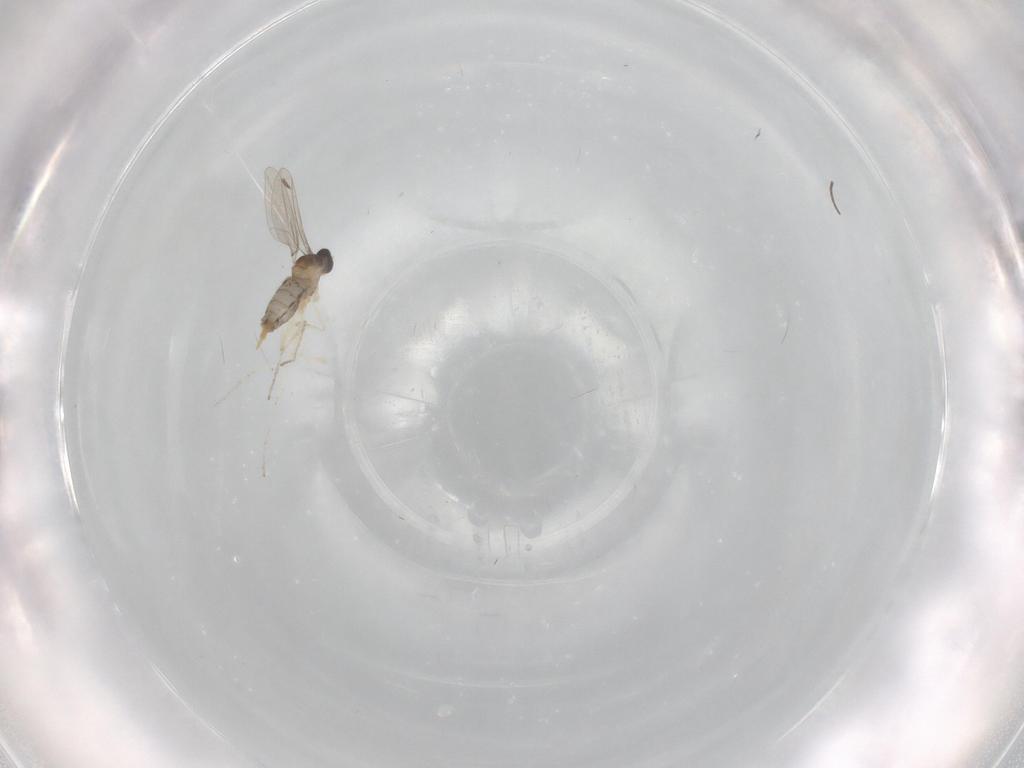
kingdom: Animalia
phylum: Arthropoda
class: Insecta
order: Diptera
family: Cecidomyiidae
